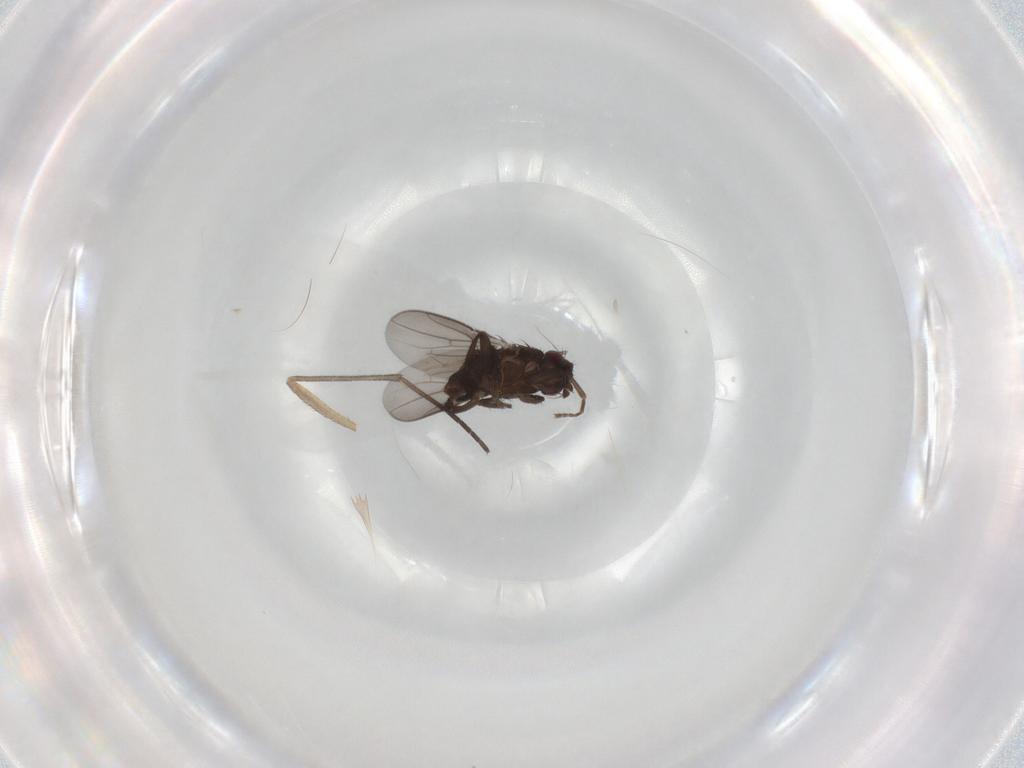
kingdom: Animalia
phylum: Arthropoda
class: Insecta
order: Diptera
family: Sphaeroceridae
